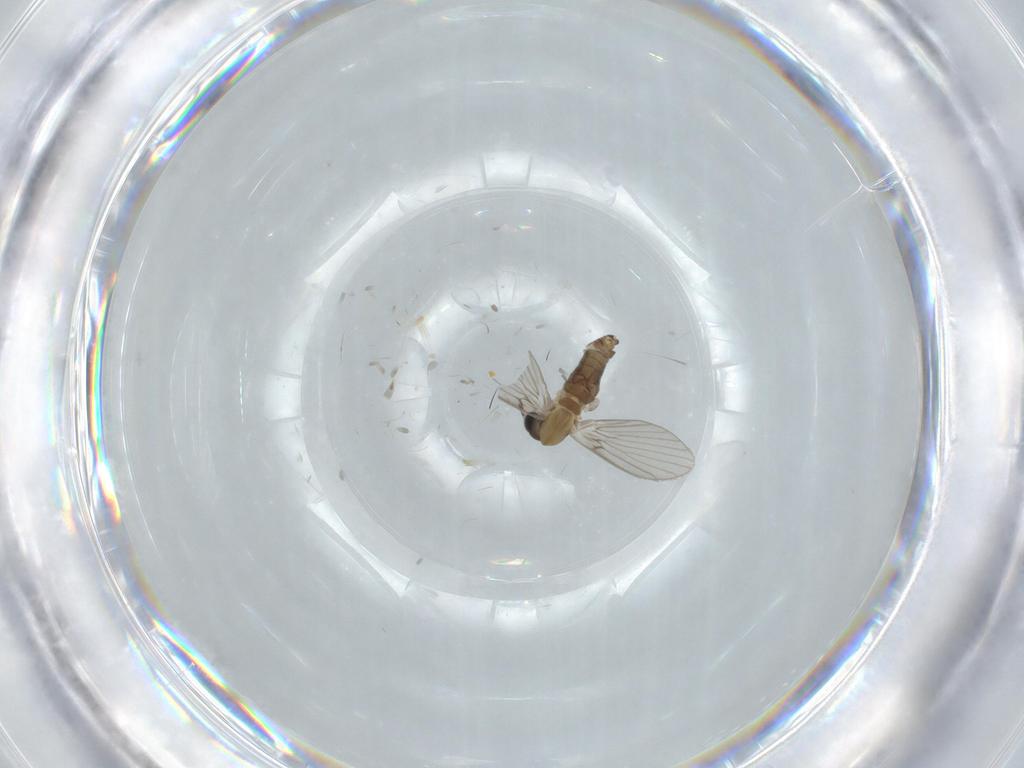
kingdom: Animalia
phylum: Arthropoda
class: Insecta
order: Diptera
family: Psychodidae
